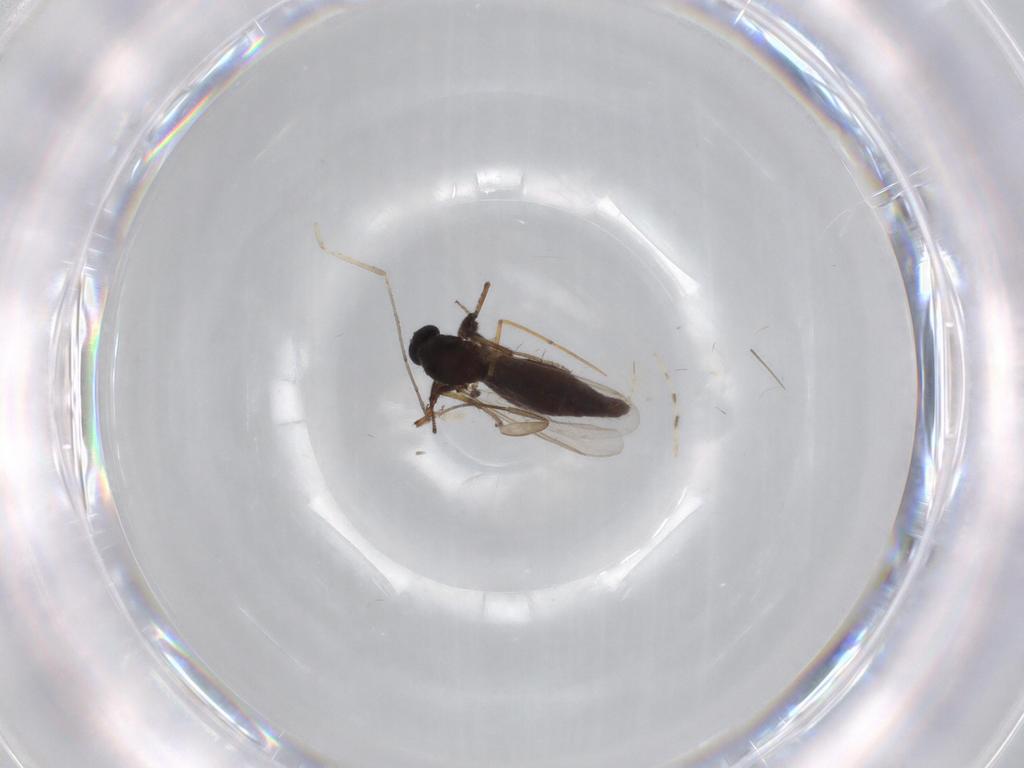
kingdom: Animalia
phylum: Arthropoda
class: Insecta
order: Diptera
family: Ceratopogonidae
